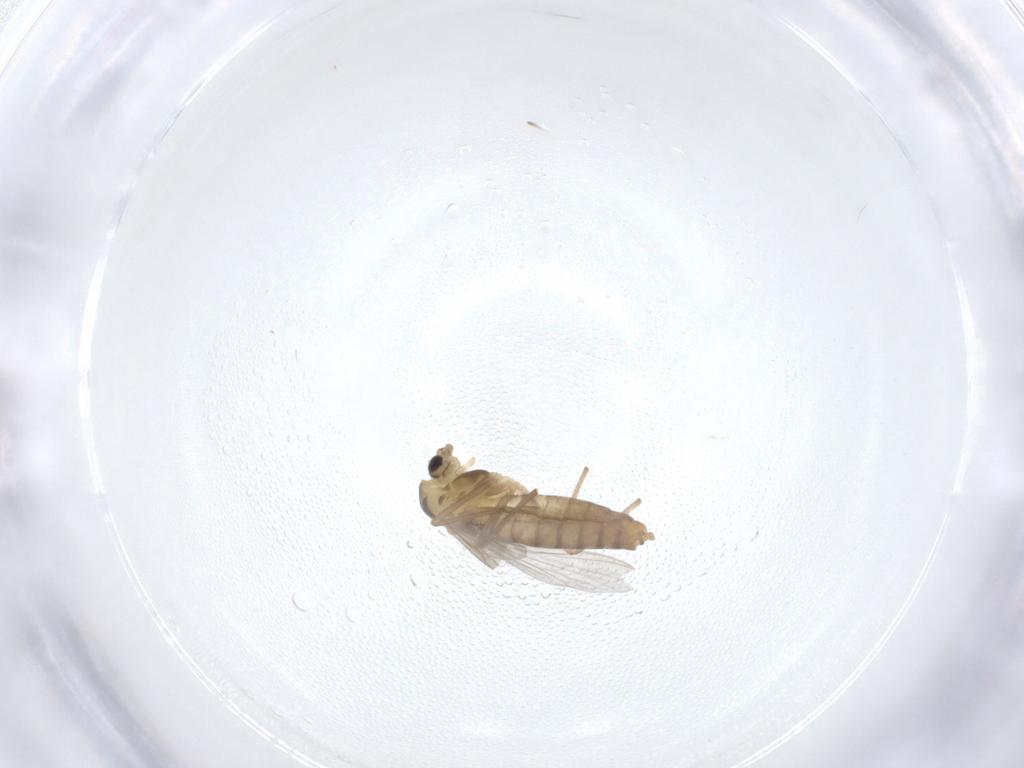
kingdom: Animalia
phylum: Arthropoda
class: Insecta
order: Diptera
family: Chironomidae
